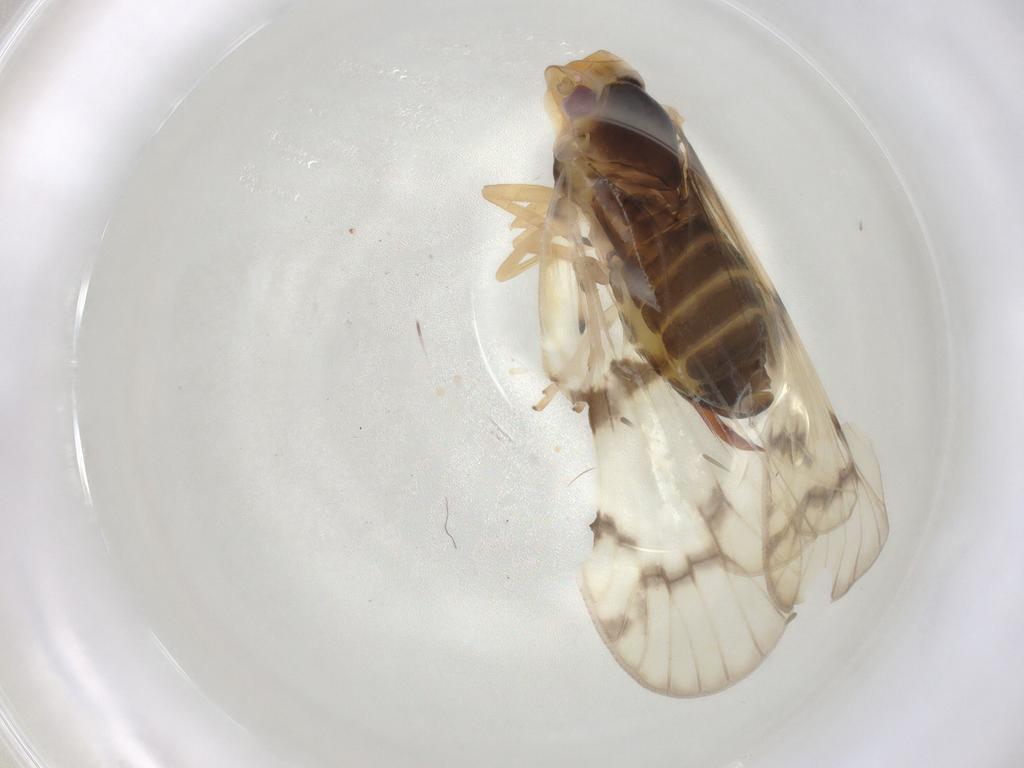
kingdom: Animalia
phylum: Arthropoda
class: Insecta
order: Hemiptera
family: Cixiidae
